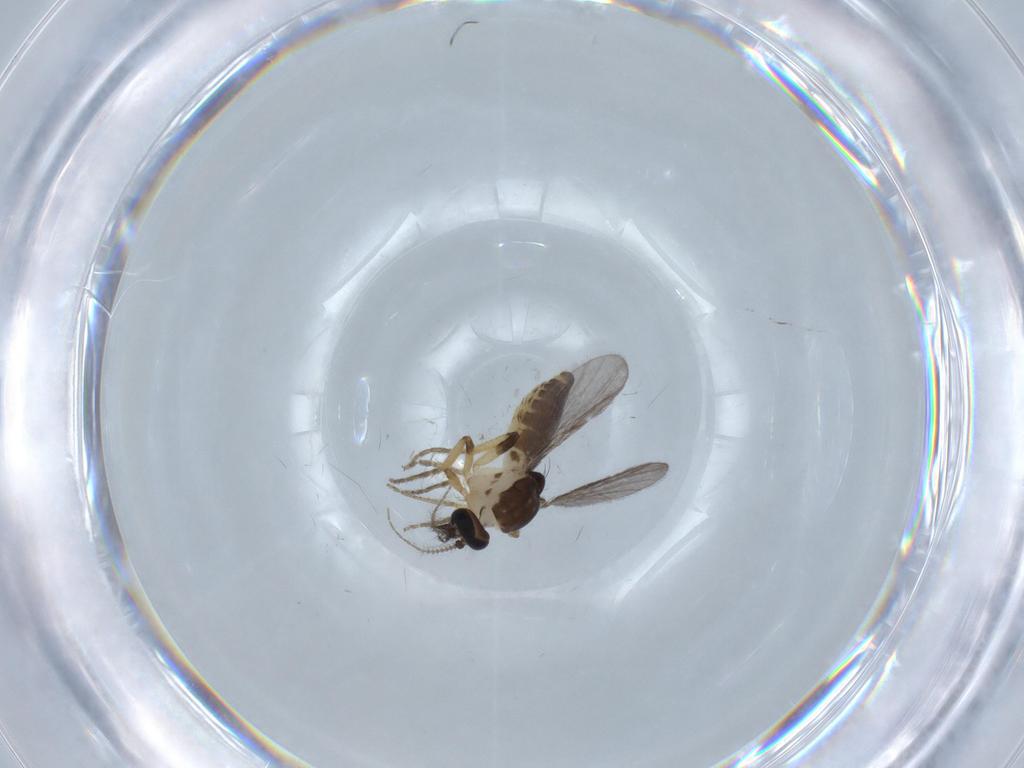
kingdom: Animalia
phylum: Arthropoda
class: Insecta
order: Diptera
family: Ceratopogonidae
